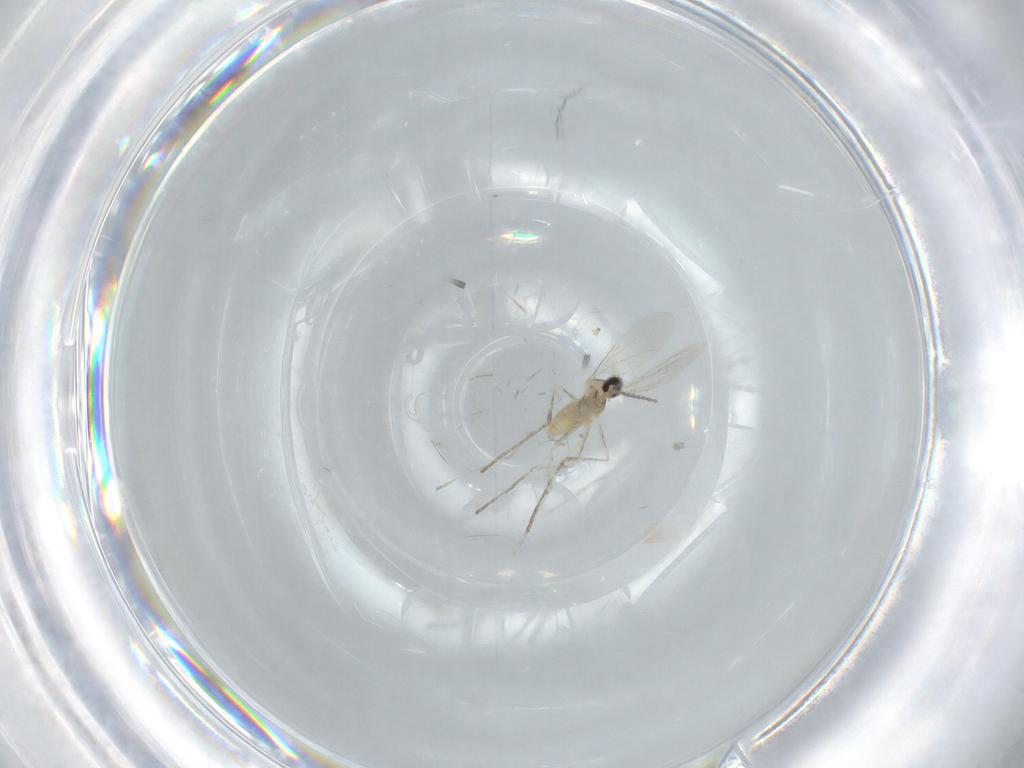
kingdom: Animalia
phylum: Arthropoda
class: Insecta
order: Diptera
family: Cecidomyiidae
